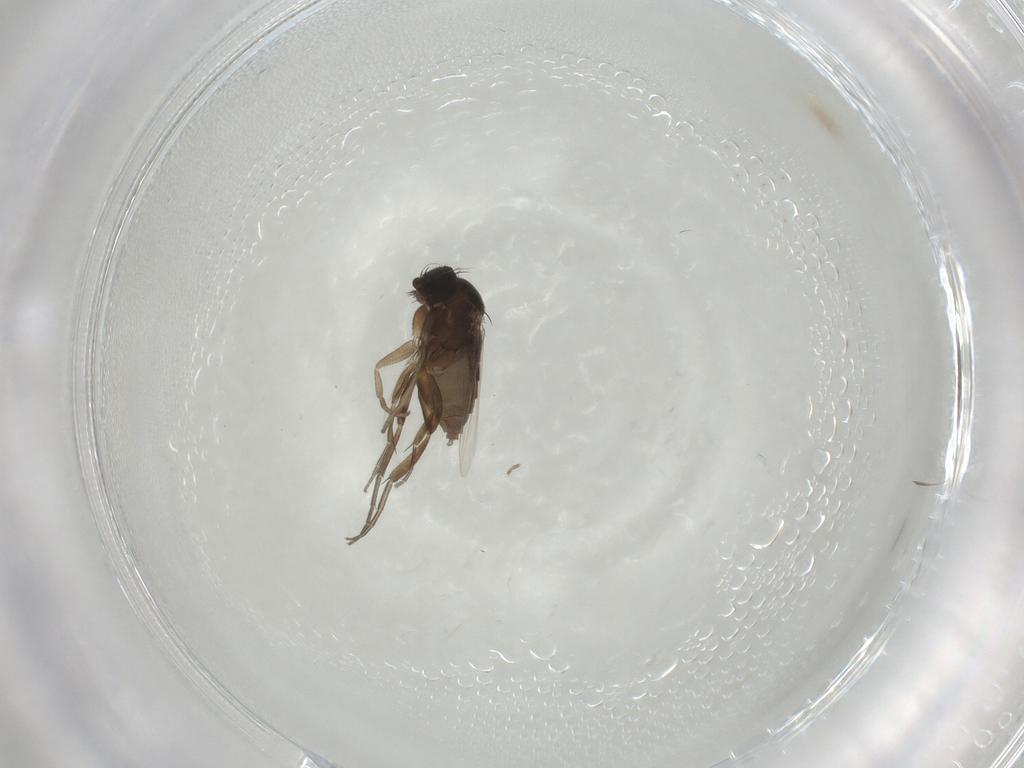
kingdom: Animalia
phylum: Arthropoda
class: Insecta
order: Diptera
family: Phoridae
